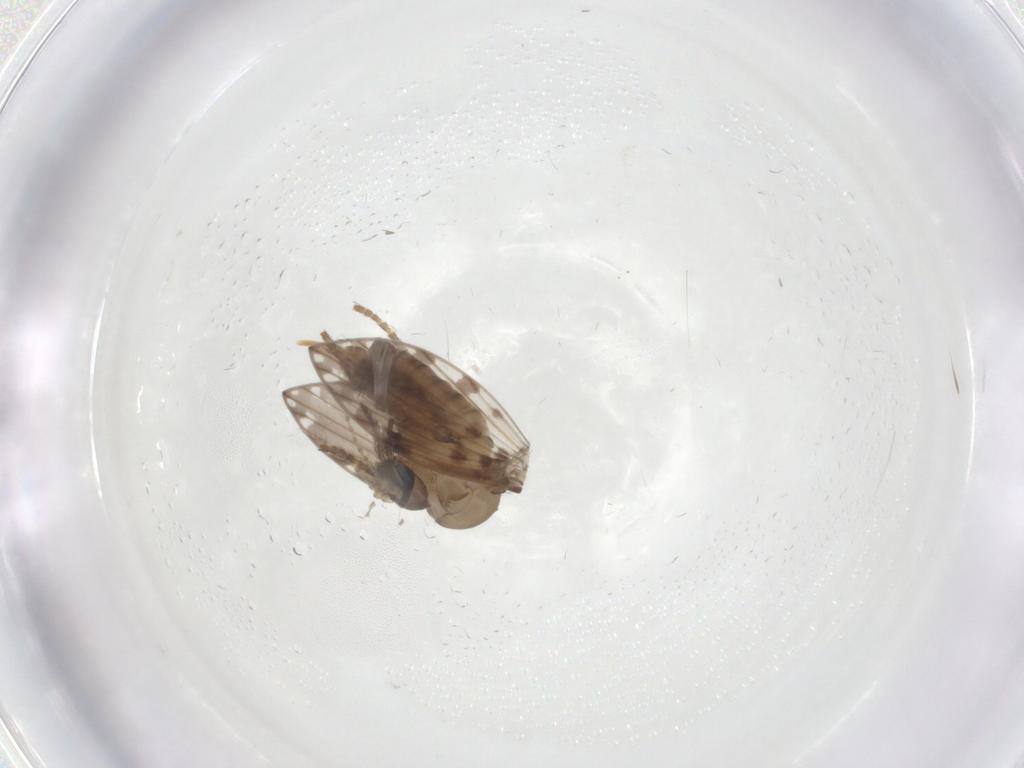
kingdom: Animalia
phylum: Arthropoda
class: Insecta
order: Diptera
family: Psychodidae
